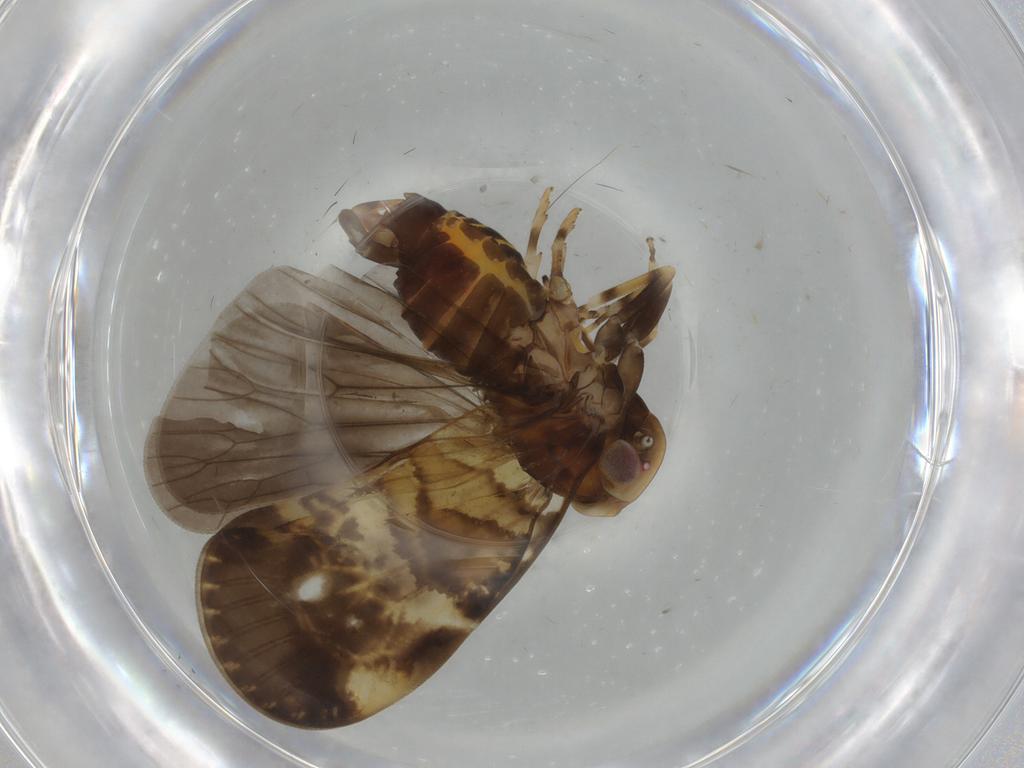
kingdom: Animalia
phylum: Arthropoda
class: Insecta
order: Hemiptera
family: Cixiidae
